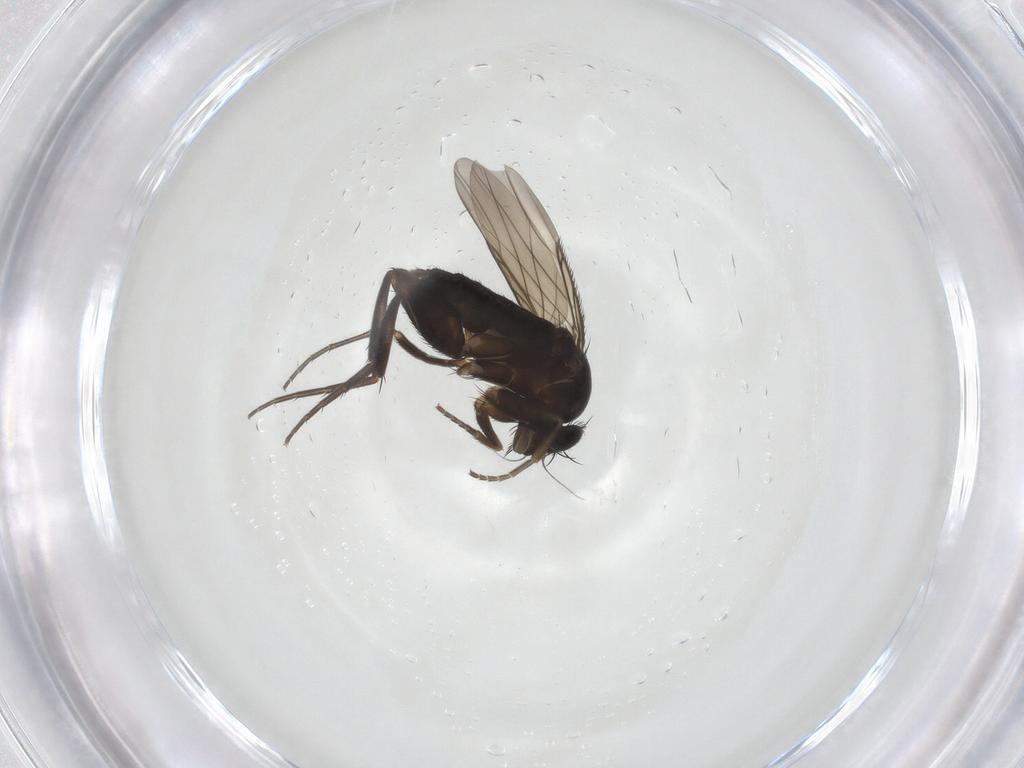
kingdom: Animalia
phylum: Arthropoda
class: Insecta
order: Diptera
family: Phoridae
